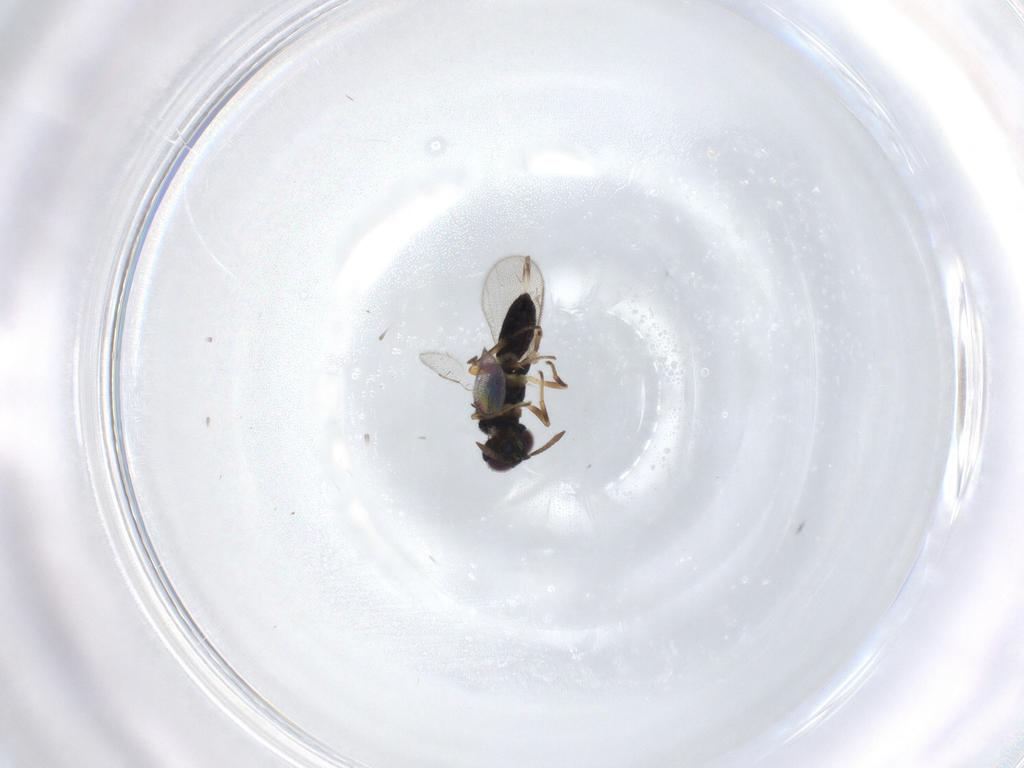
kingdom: Animalia
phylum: Arthropoda
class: Insecta
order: Hymenoptera
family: Pteromalidae
